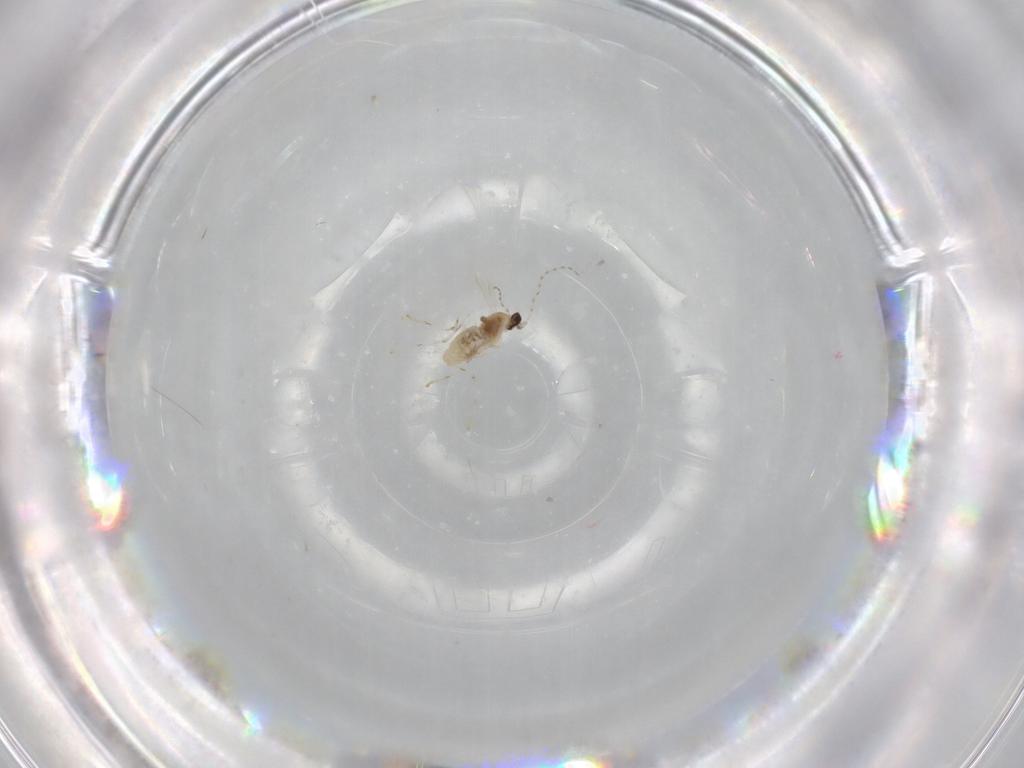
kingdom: Animalia
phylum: Arthropoda
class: Insecta
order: Diptera
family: Cecidomyiidae
